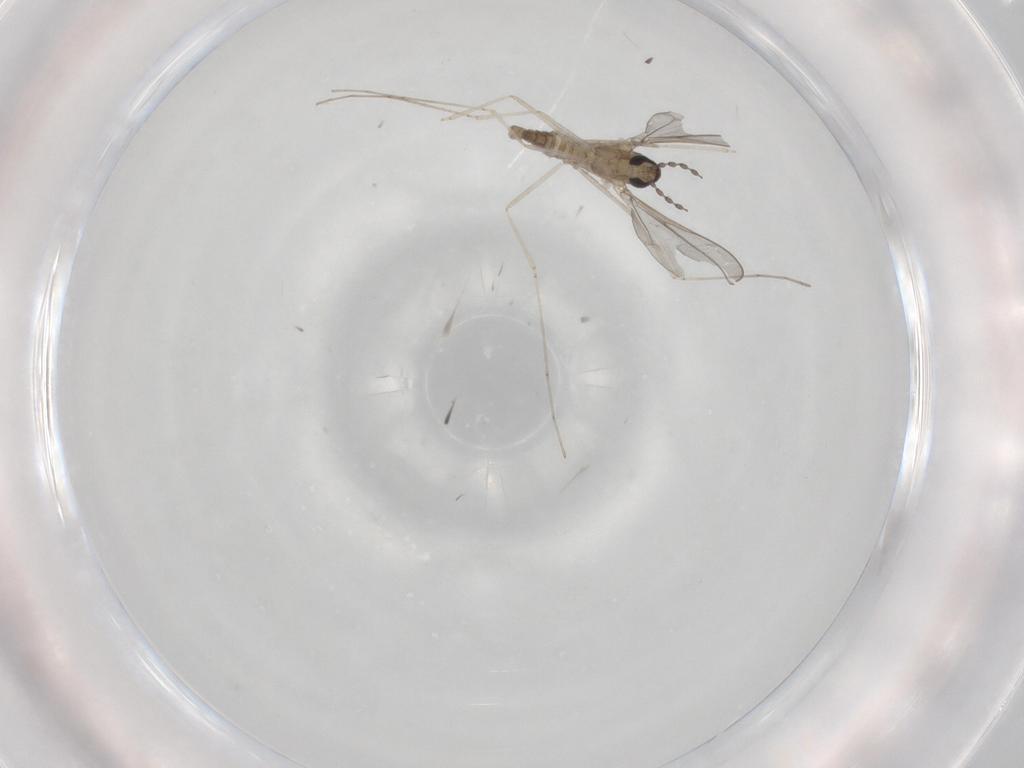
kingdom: Animalia
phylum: Arthropoda
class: Insecta
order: Diptera
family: Cecidomyiidae
